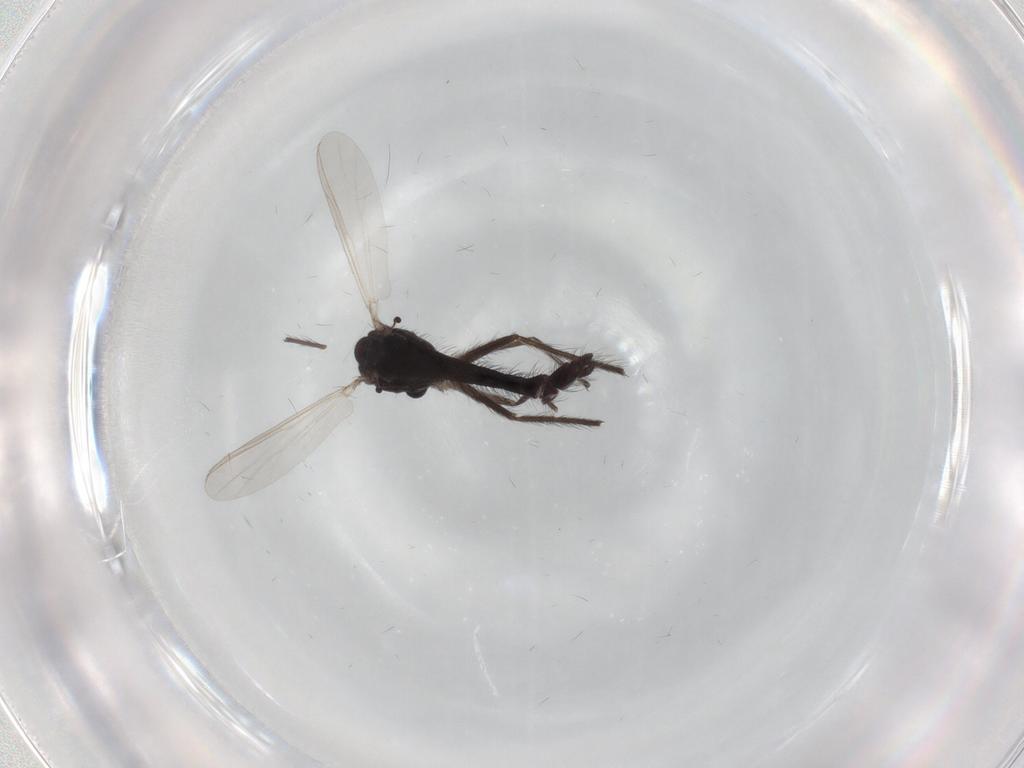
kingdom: Animalia
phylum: Arthropoda
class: Insecta
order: Diptera
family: Chironomidae
